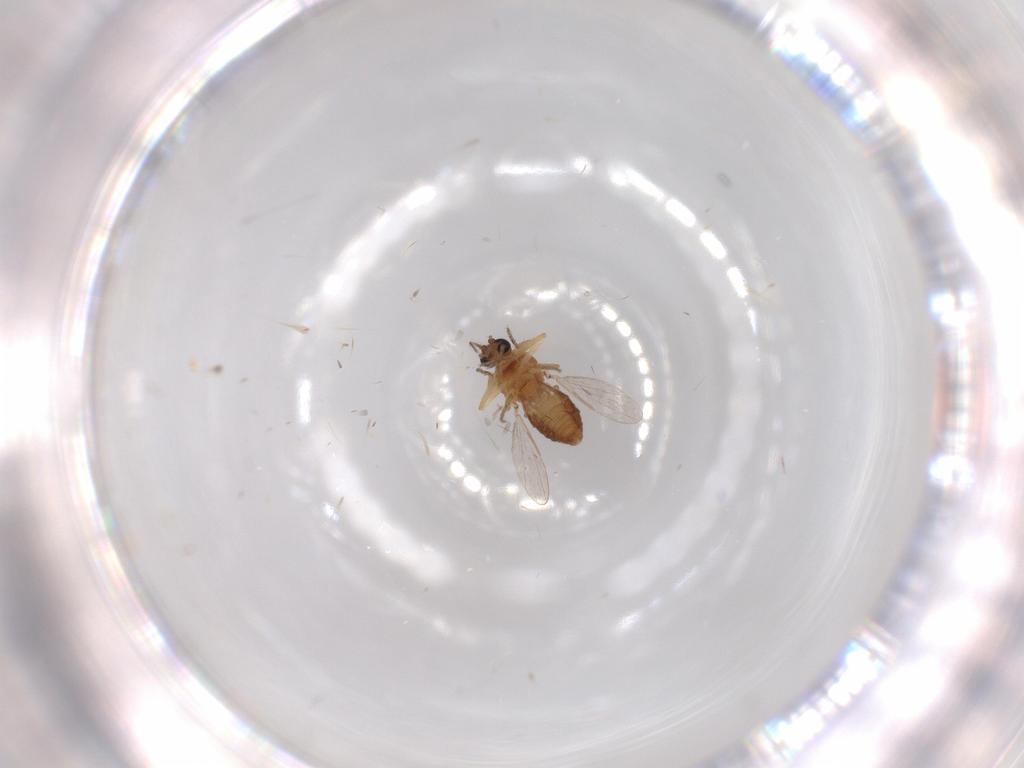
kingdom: Animalia
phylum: Arthropoda
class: Insecta
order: Diptera
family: Ceratopogonidae
